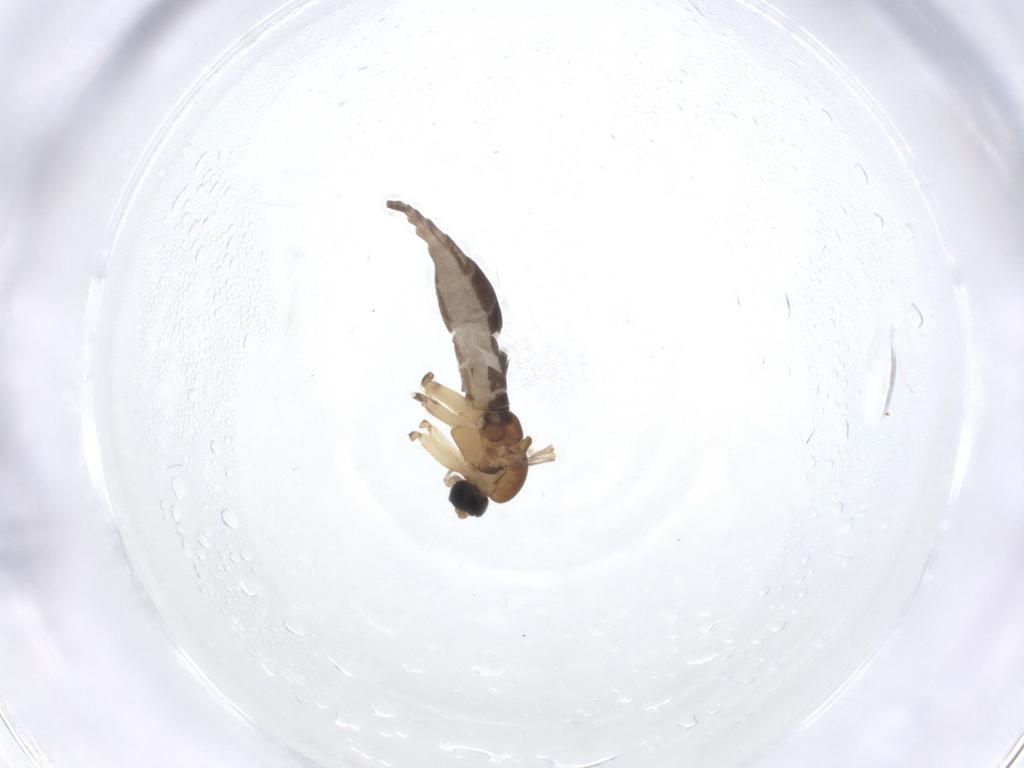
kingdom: Animalia
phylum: Arthropoda
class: Insecta
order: Diptera
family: Sciaridae
